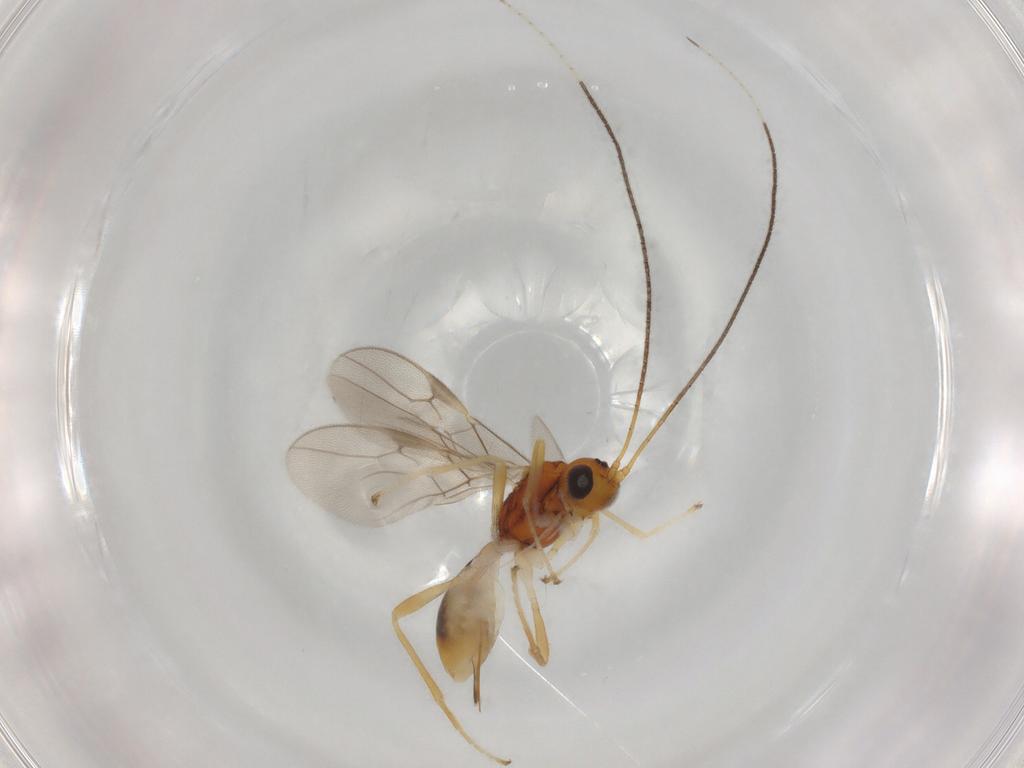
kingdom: Animalia
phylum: Arthropoda
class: Insecta
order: Hymenoptera
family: Braconidae
